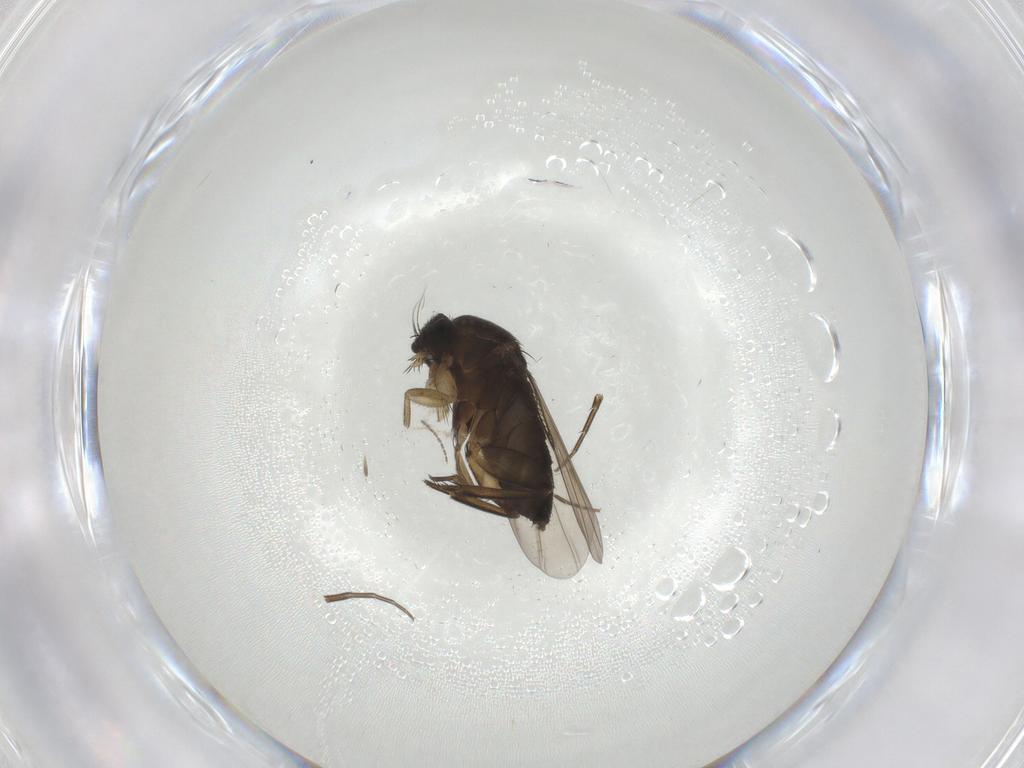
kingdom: Animalia
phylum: Arthropoda
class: Insecta
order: Diptera
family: Phoridae
